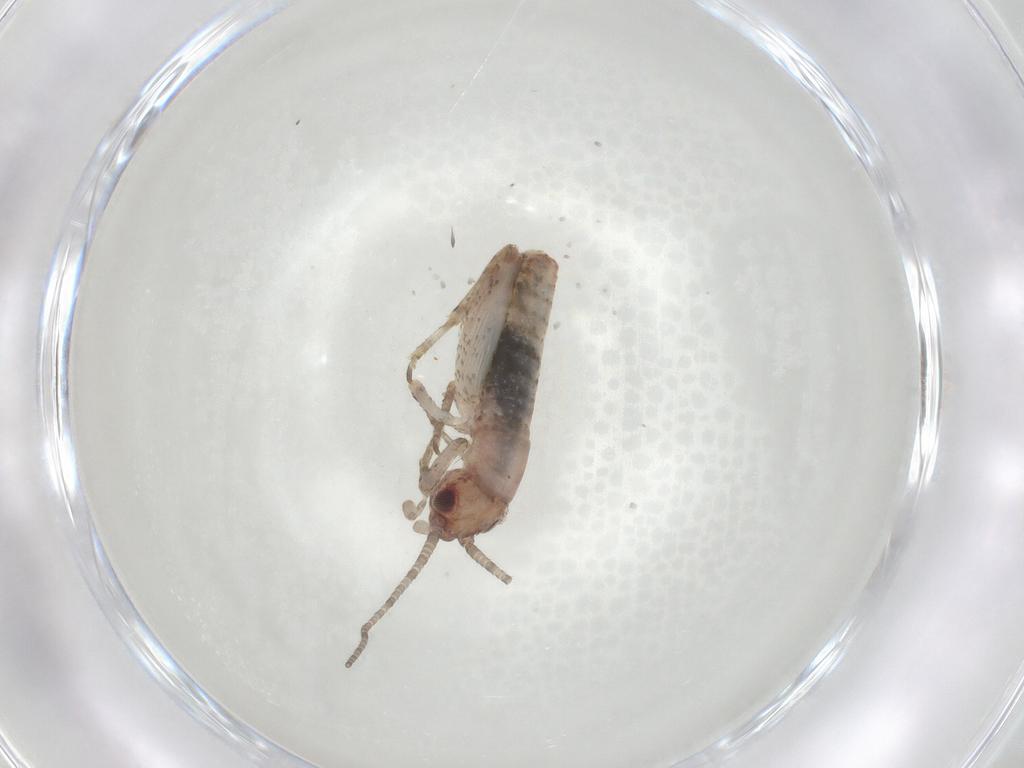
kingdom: Animalia
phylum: Arthropoda
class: Insecta
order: Orthoptera
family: Mogoplistidae
